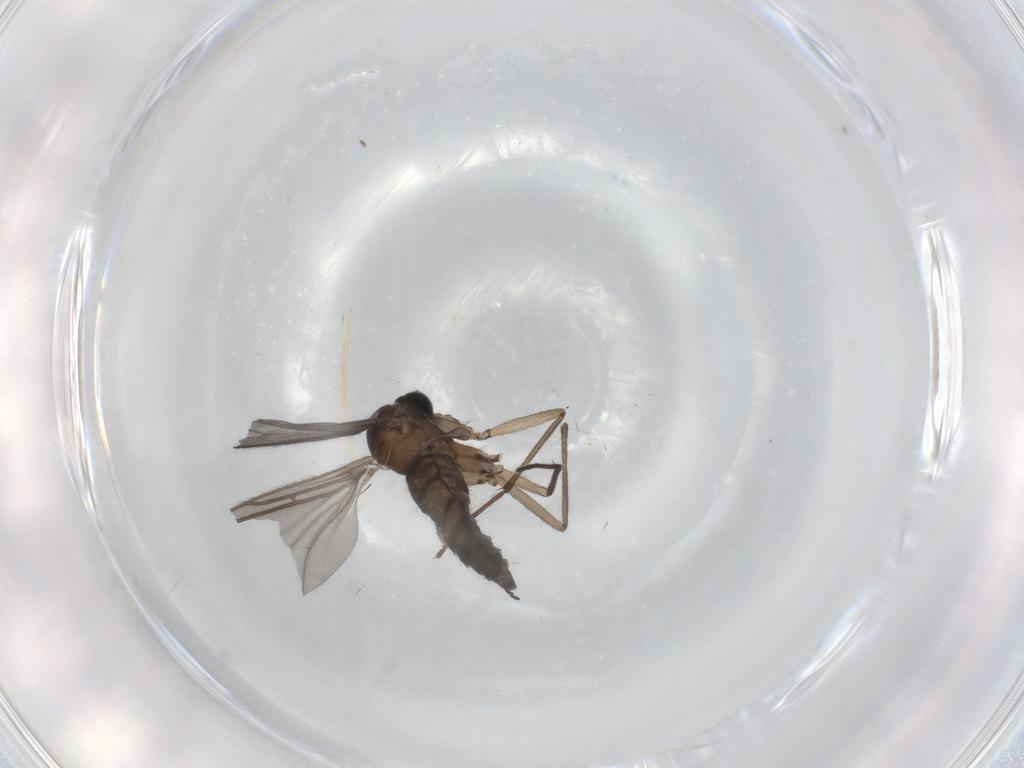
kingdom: Animalia
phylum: Arthropoda
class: Insecta
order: Diptera
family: Sciaridae
